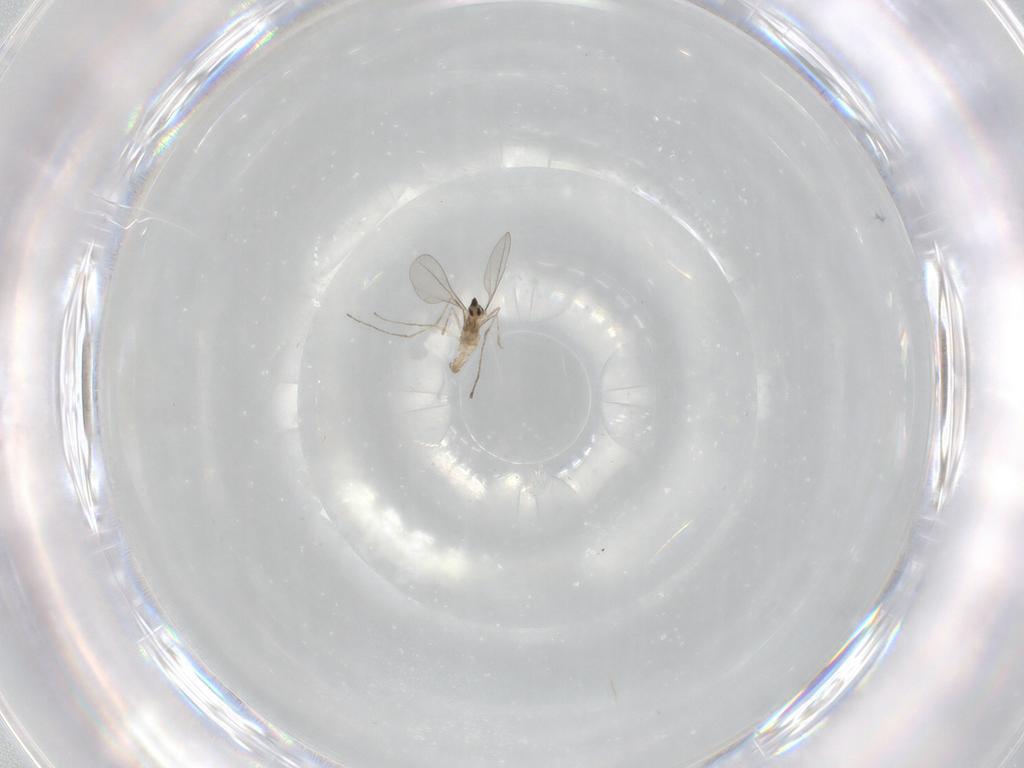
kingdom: Animalia
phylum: Arthropoda
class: Insecta
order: Diptera
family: Cecidomyiidae
